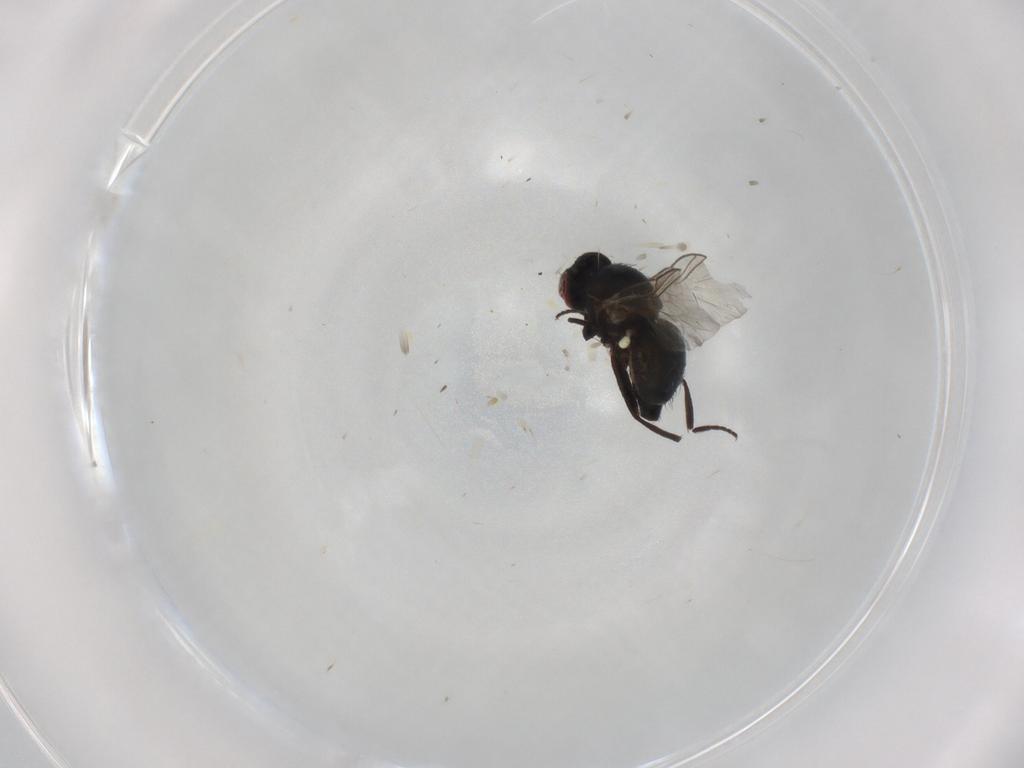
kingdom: Animalia
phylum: Arthropoda
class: Insecta
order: Diptera
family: Agromyzidae
